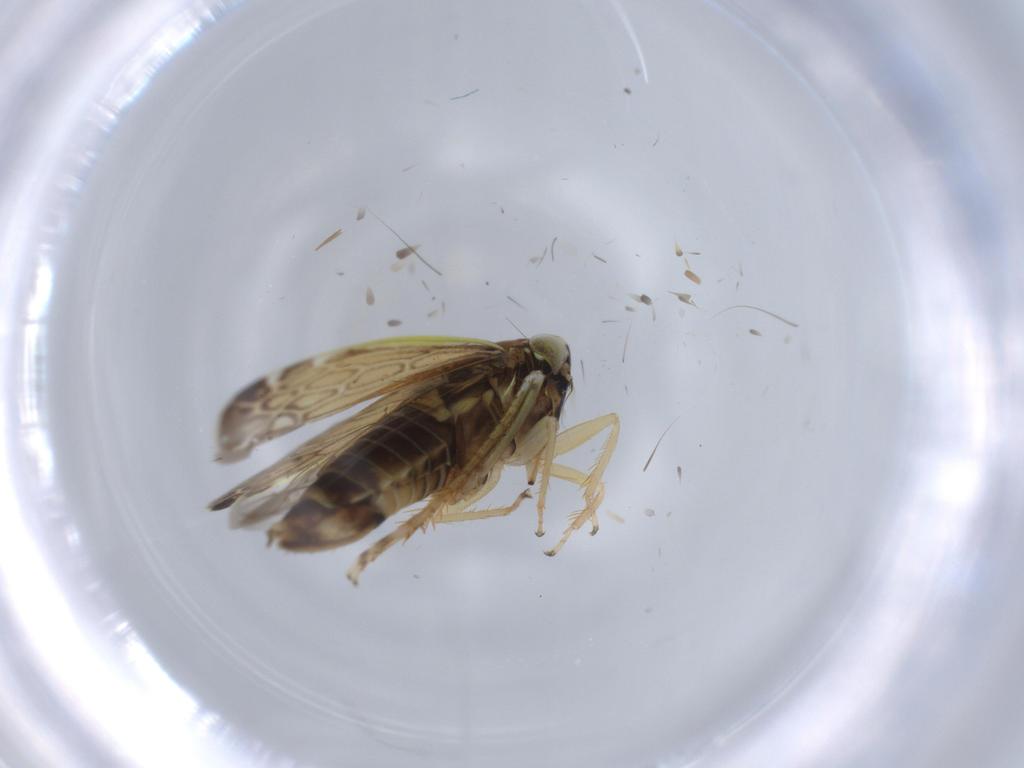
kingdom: Animalia
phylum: Arthropoda
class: Insecta
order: Hemiptera
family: Cicadellidae
